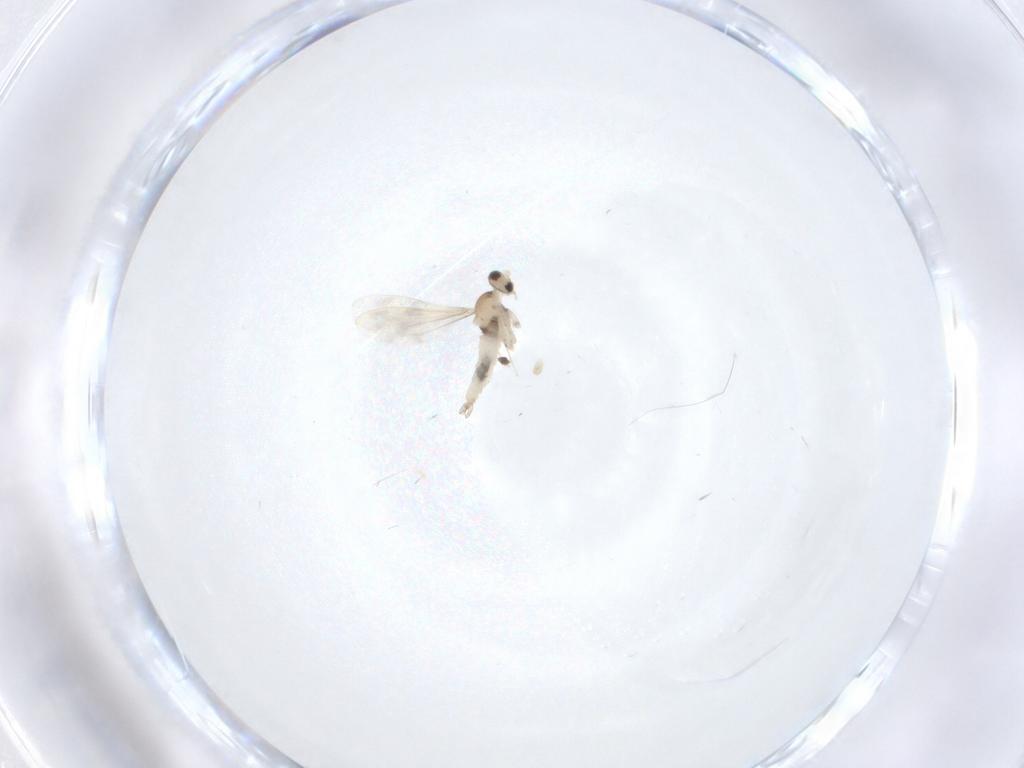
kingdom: Animalia
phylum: Arthropoda
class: Insecta
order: Diptera
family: Cecidomyiidae
